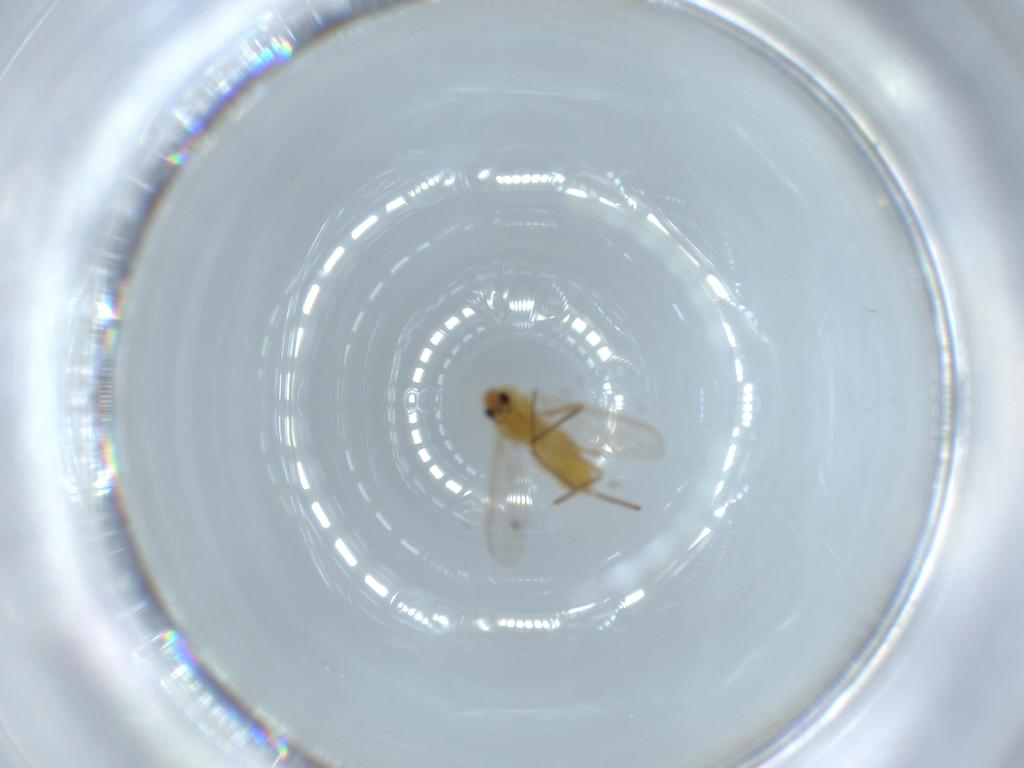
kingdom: Animalia
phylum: Arthropoda
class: Insecta
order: Diptera
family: Chironomidae
